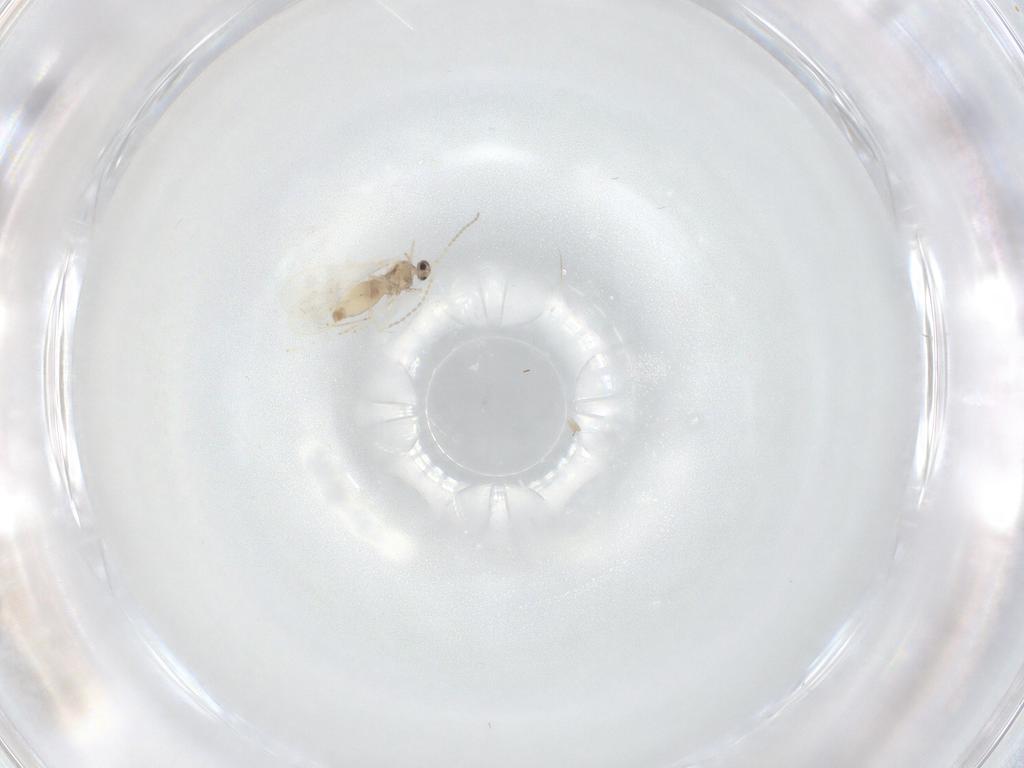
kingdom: Animalia
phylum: Arthropoda
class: Insecta
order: Diptera
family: Cecidomyiidae
